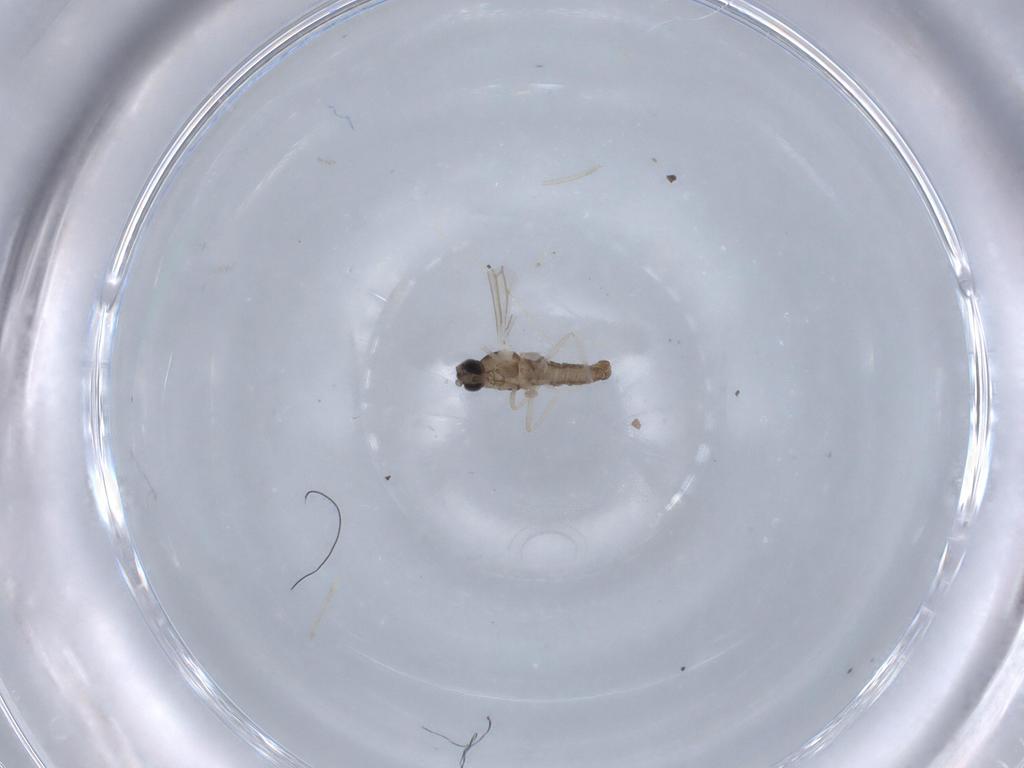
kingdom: Animalia
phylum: Arthropoda
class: Insecta
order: Diptera
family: Cecidomyiidae
